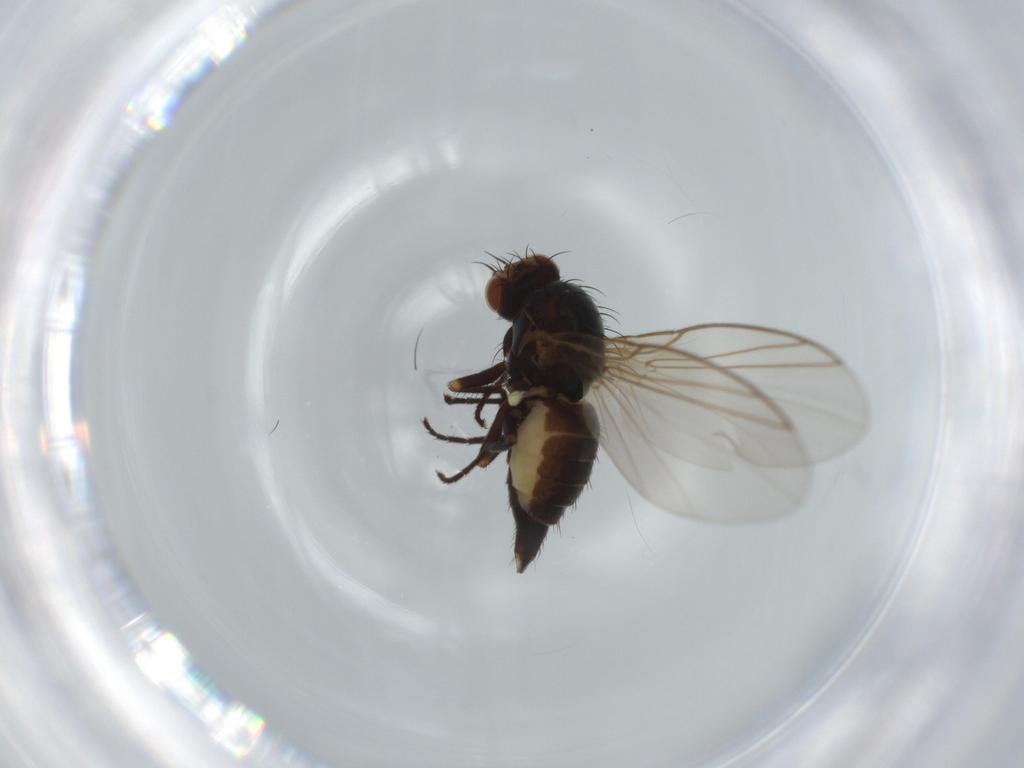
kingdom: Animalia
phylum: Arthropoda
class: Insecta
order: Diptera
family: Agromyzidae
